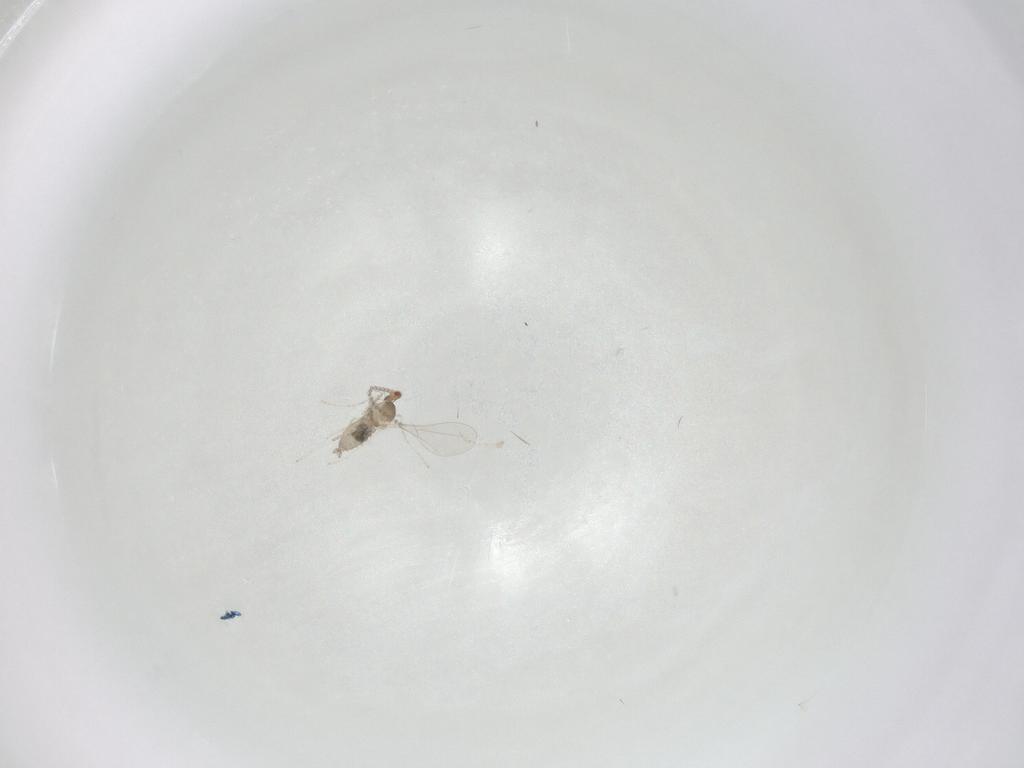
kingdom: Animalia
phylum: Arthropoda
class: Insecta
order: Diptera
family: Cecidomyiidae
